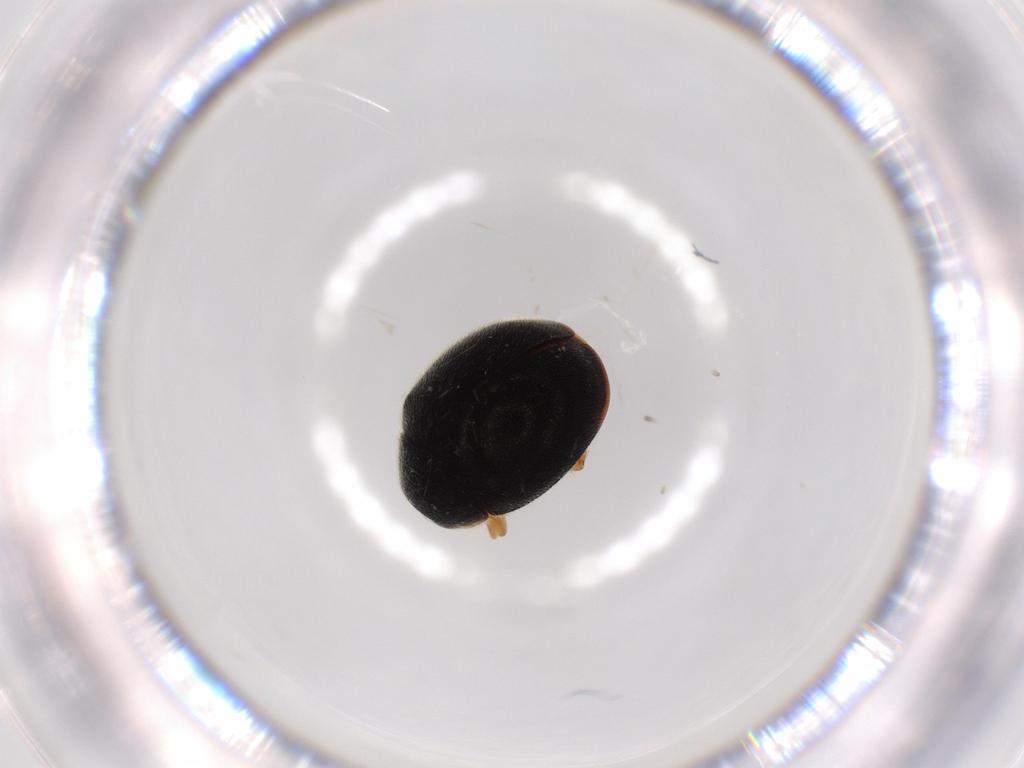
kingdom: Animalia
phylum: Arthropoda
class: Insecta
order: Coleoptera
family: Coccinellidae
